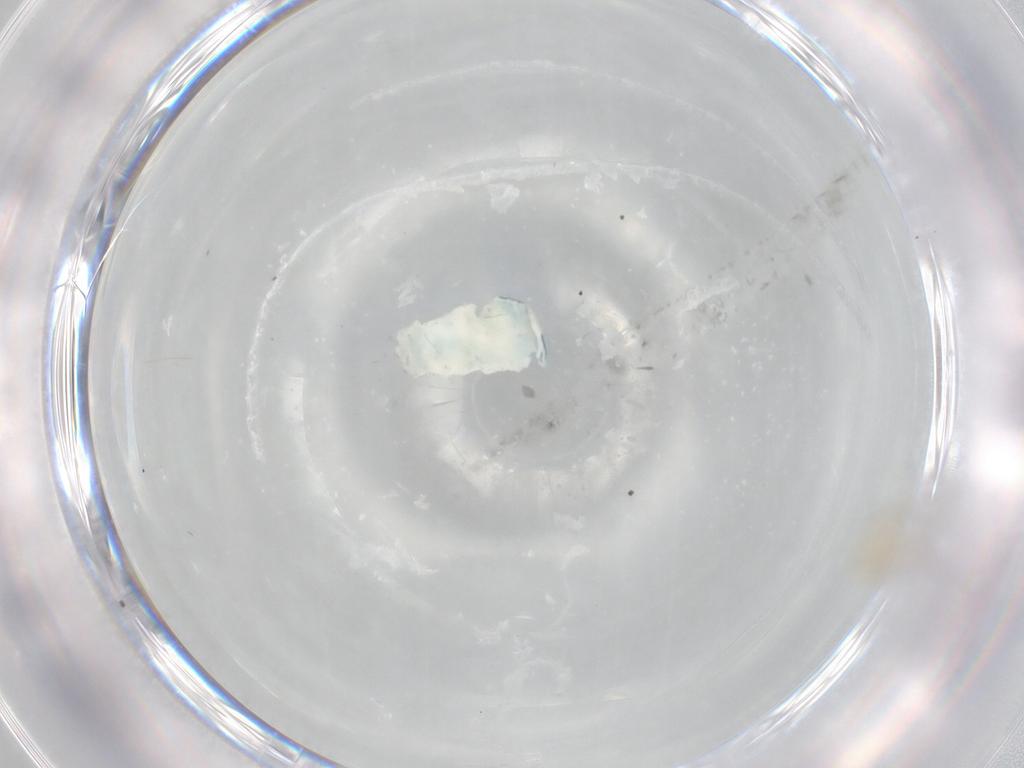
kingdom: Animalia
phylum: Arthropoda
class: Insecta
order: Diptera
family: Cecidomyiidae
